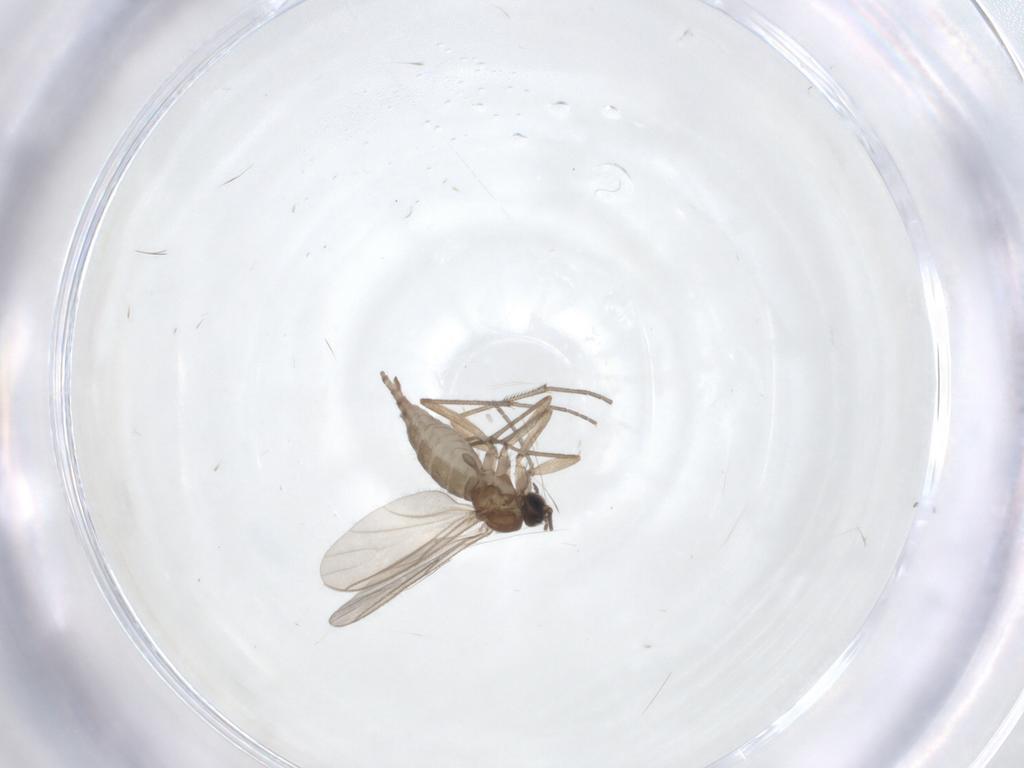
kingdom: Animalia
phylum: Arthropoda
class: Insecta
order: Diptera
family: Sciaridae
